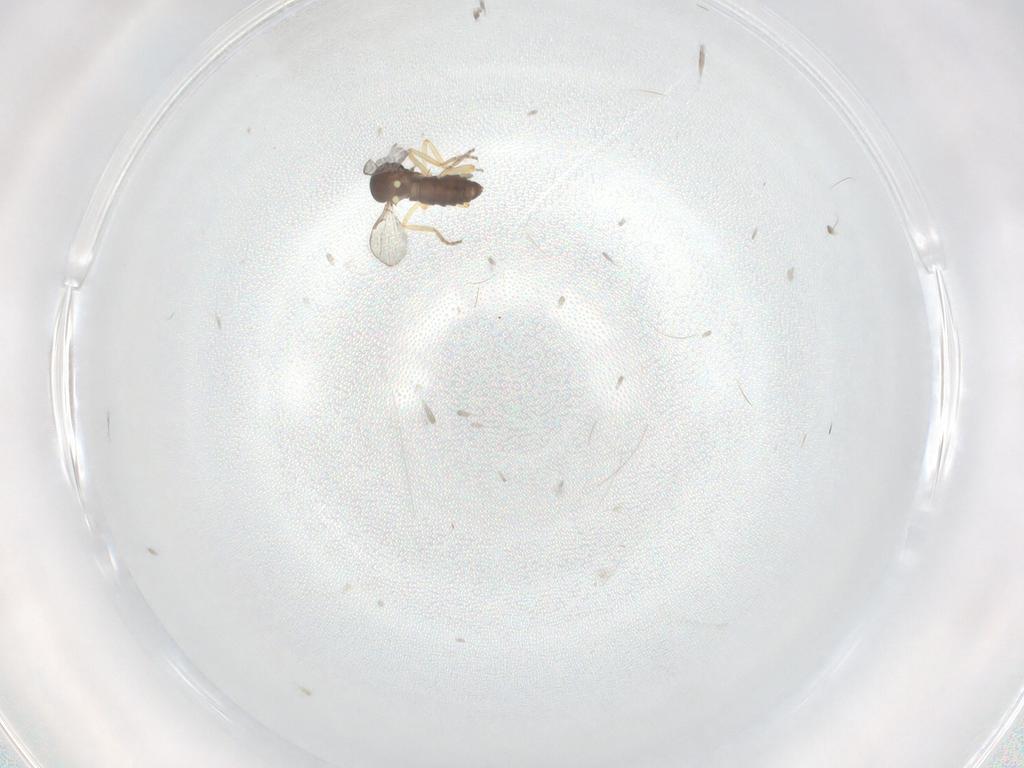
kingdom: Animalia
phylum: Arthropoda
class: Insecta
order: Diptera
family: Ceratopogonidae
